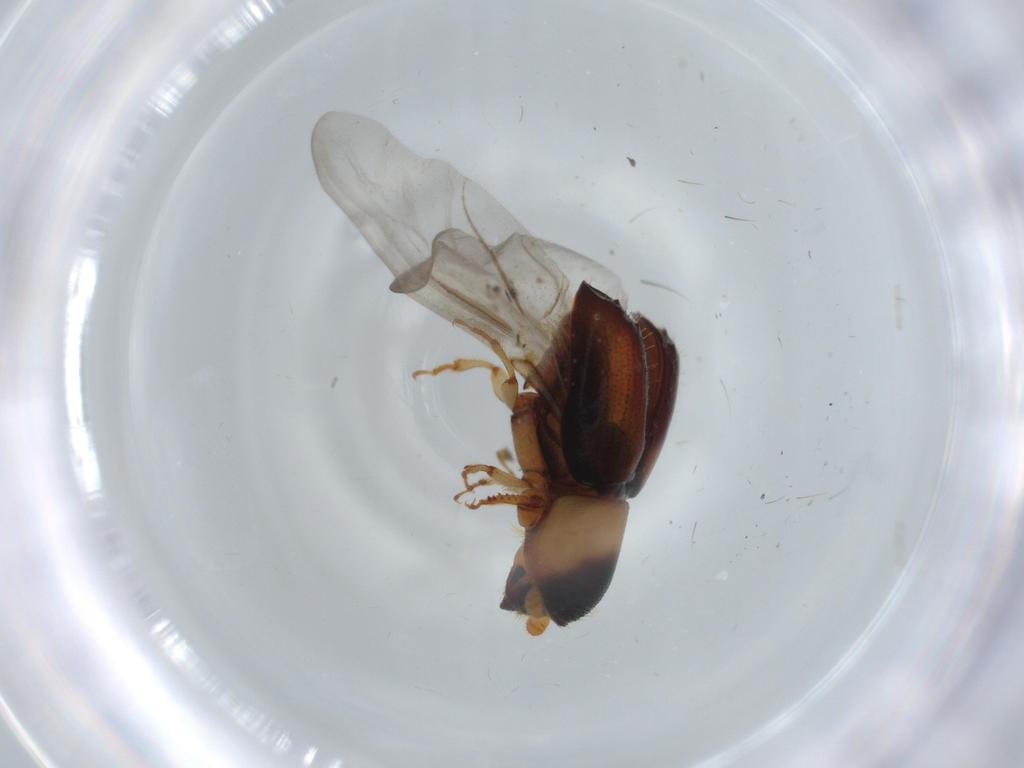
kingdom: Animalia
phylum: Arthropoda
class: Insecta
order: Coleoptera
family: Curculionidae
